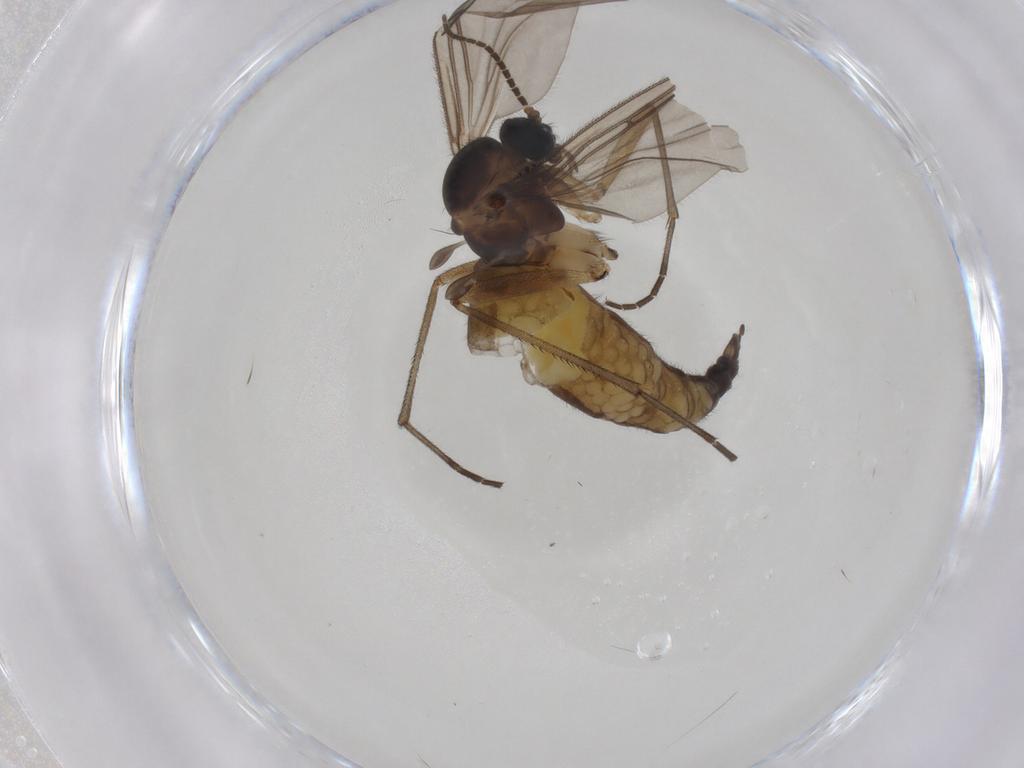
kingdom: Animalia
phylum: Arthropoda
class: Insecta
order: Diptera
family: Sciaridae
